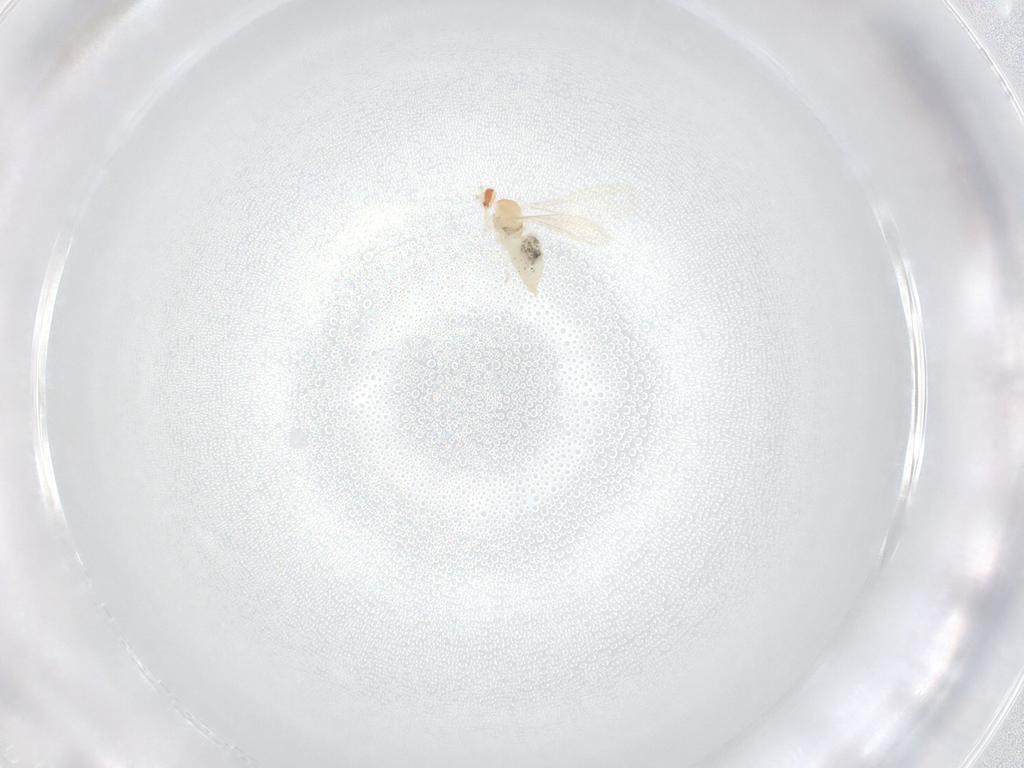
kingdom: Animalia
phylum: Arthropoda
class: Insecta
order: Diptera
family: Cecidomyiidae
